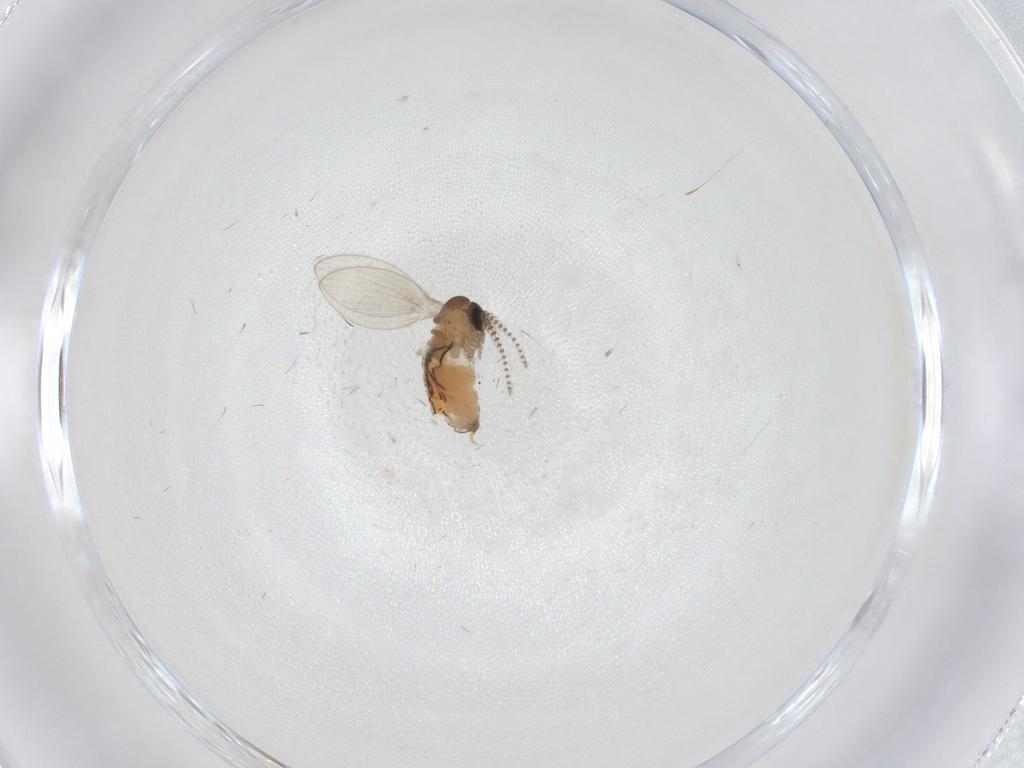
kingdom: Animalia
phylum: Arthropoda
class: Insecta
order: Diptera
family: Psychodidae
